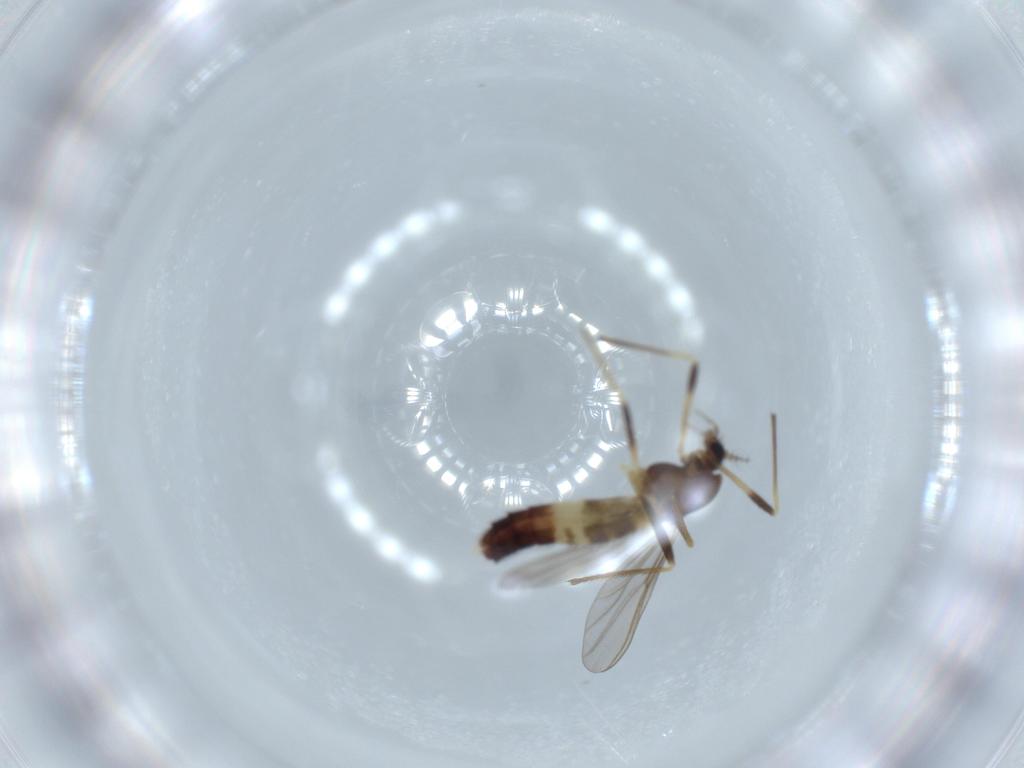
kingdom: Animalia
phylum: Arthropoda
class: Insecta
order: Diptera
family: Chironomidae
